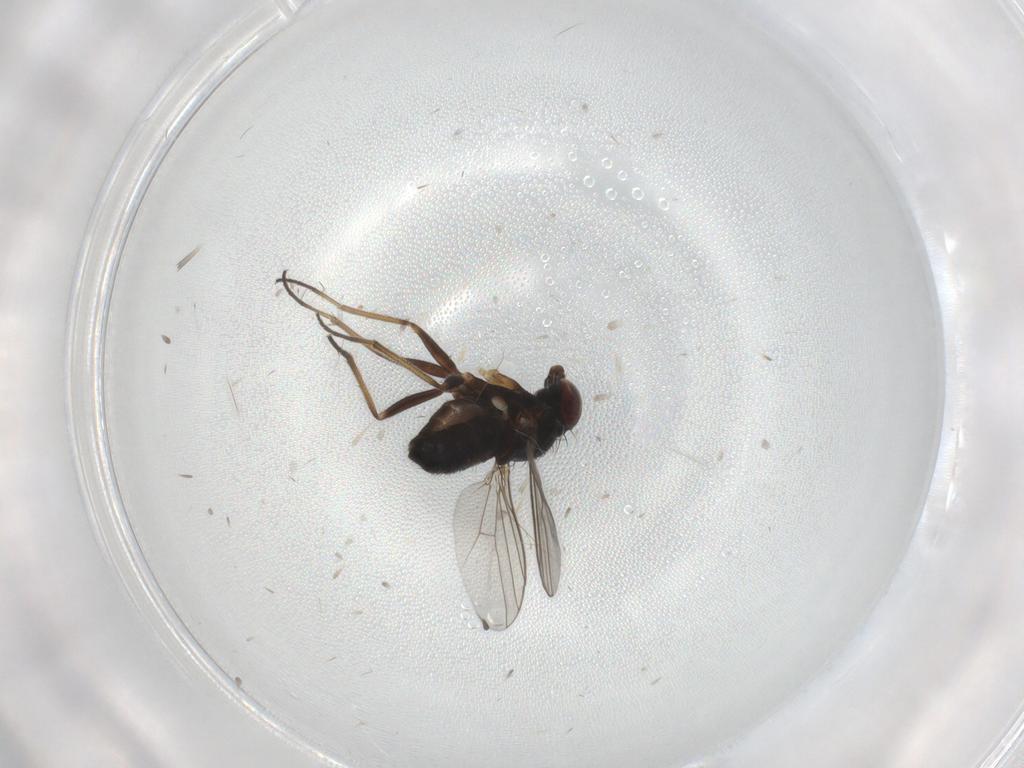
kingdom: Animalia
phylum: Arthropoda
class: Insecta
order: Diptera
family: Dolichopodidae
